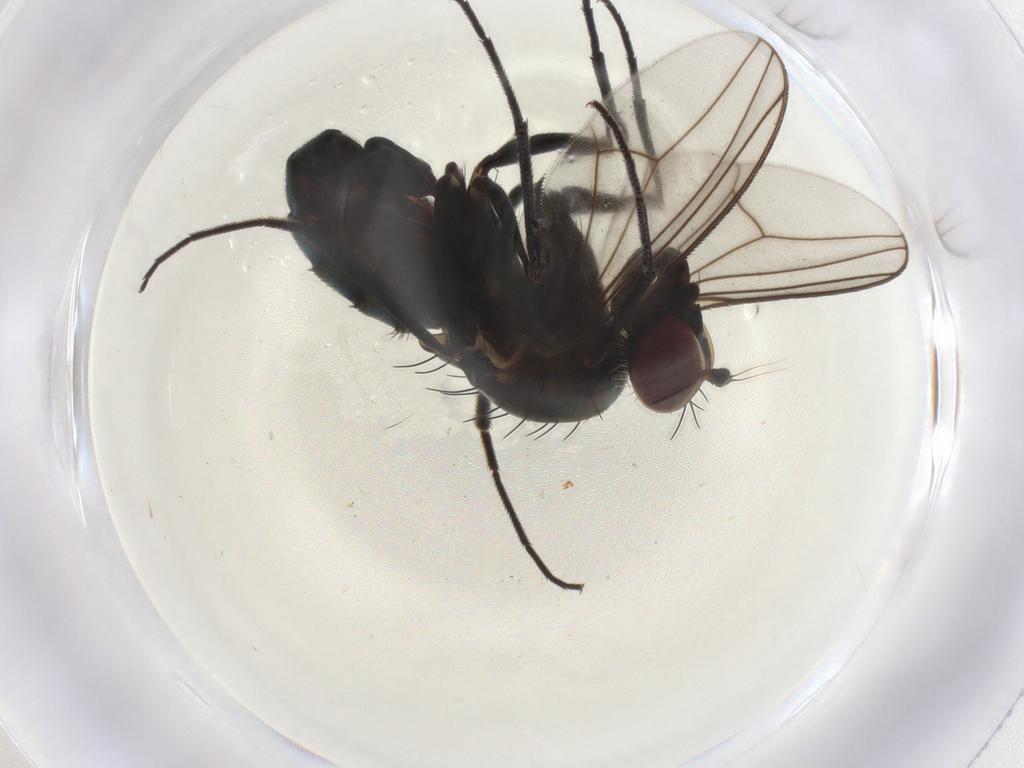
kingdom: Animalia
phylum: Arthropoda
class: Insecta
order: Diptera
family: Dolichopodidae
